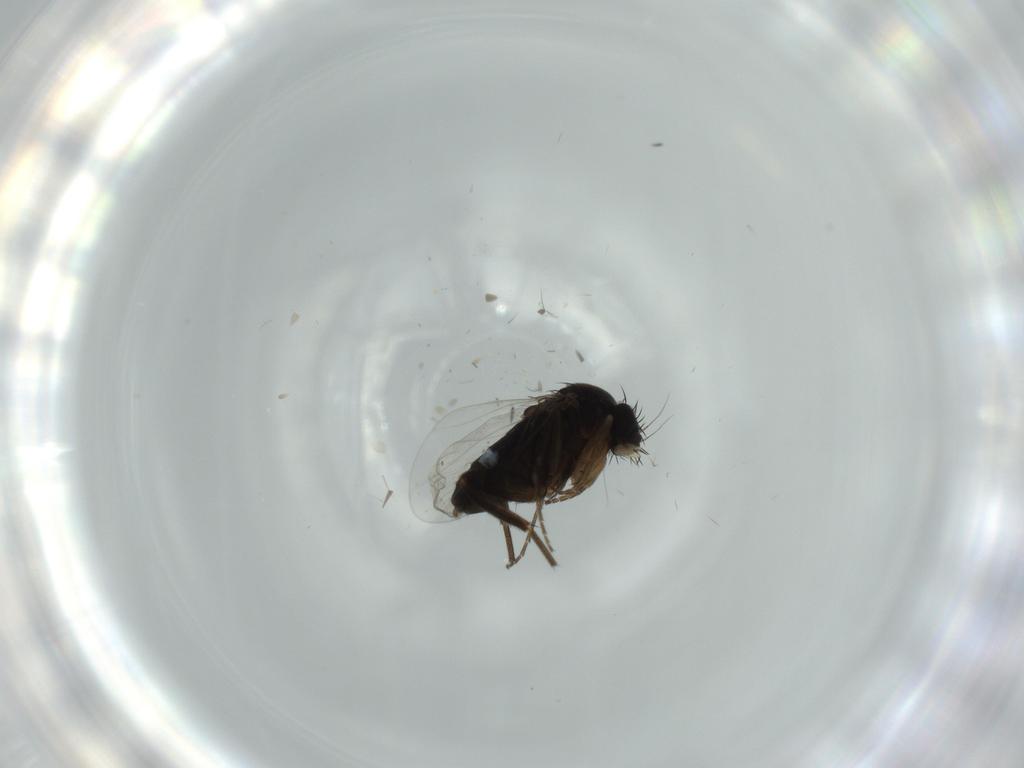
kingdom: Animalia
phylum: Arthropoda
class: Insecta
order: Diptera
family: Phoridae
